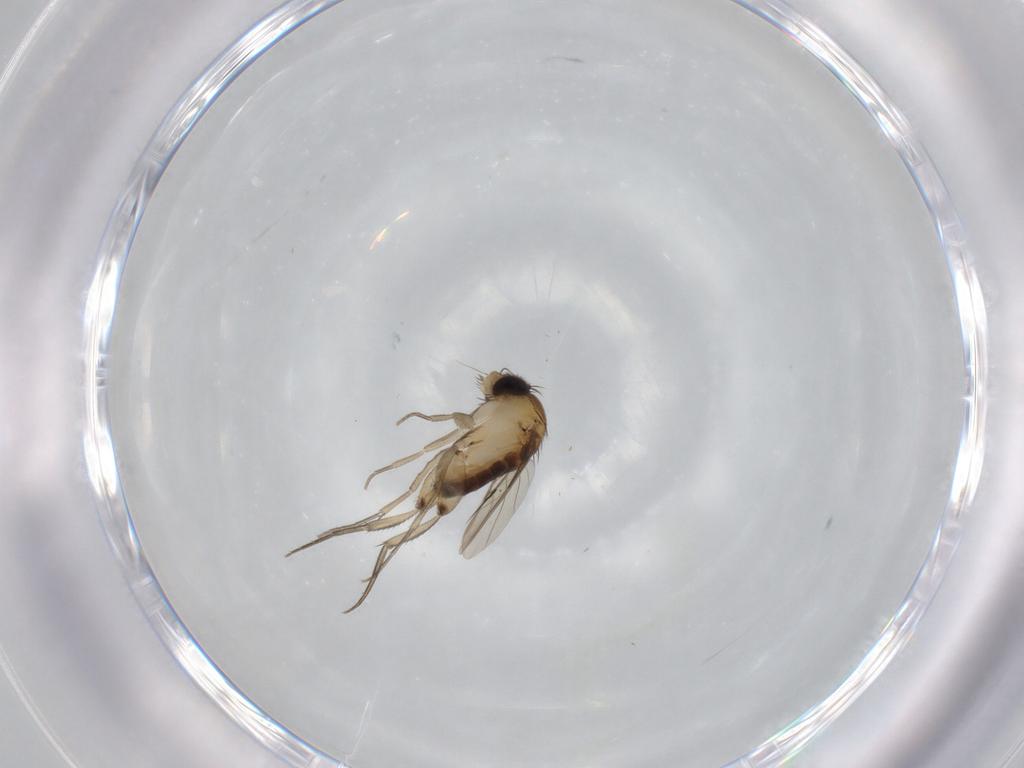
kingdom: Animalia
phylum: Arthropoda
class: Insecta
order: Diptera
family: Phoridae
